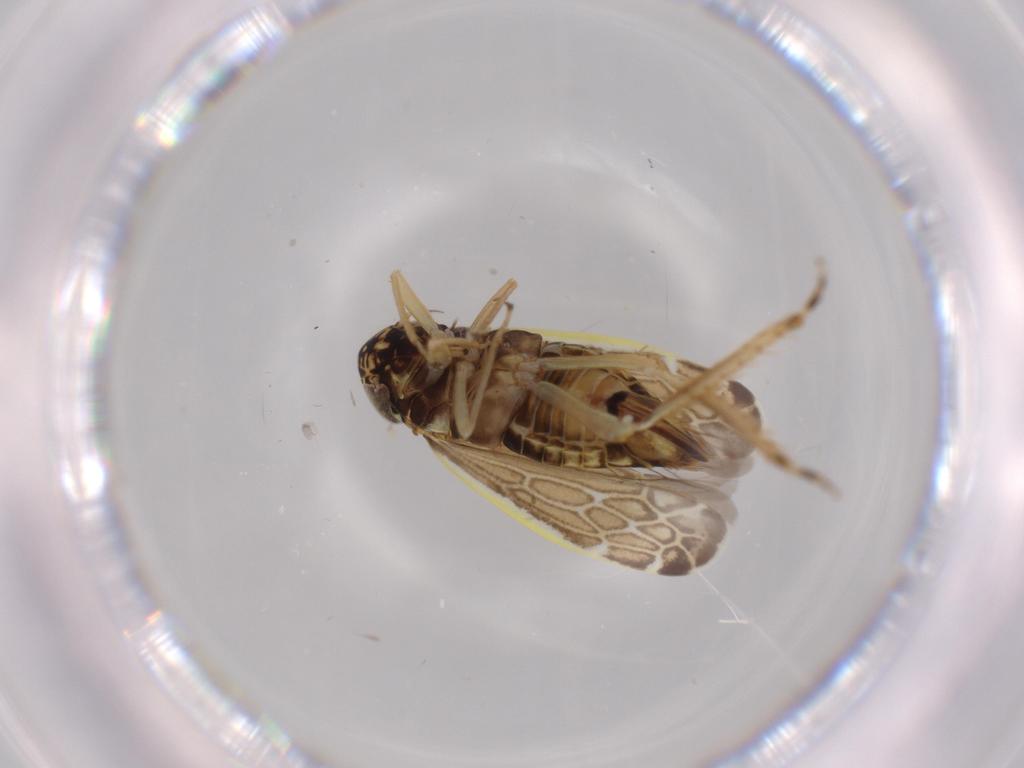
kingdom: Animalia
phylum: Arthropoda
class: Insecta
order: Hemiptera
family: Cicadellidae
